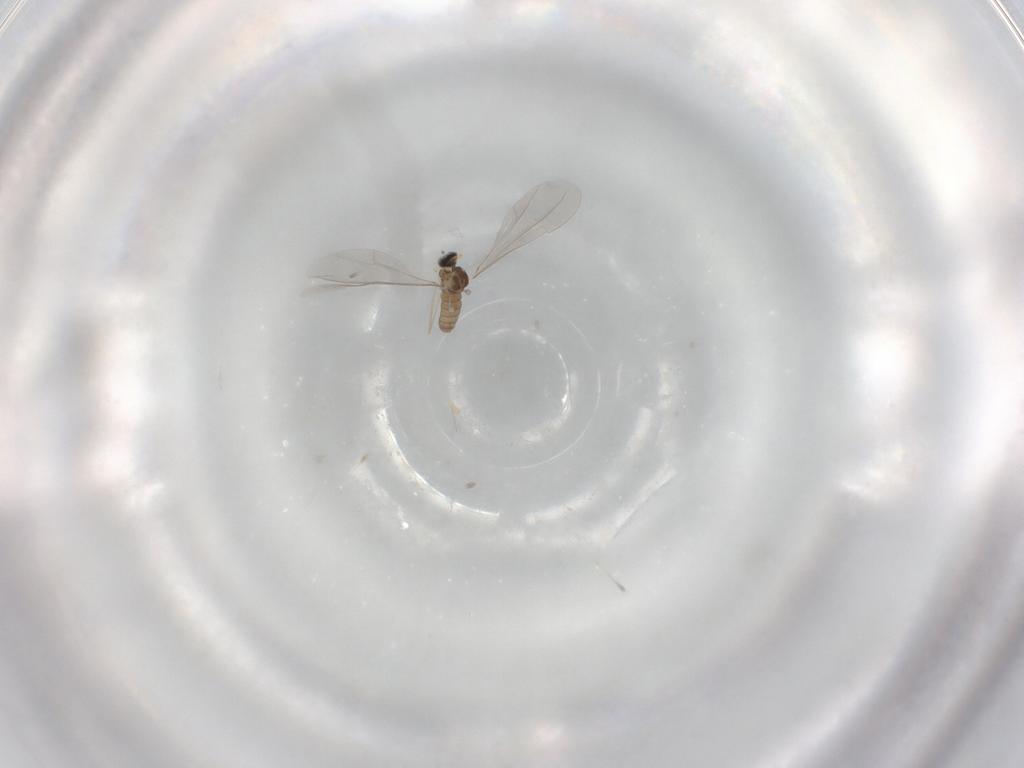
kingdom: Animalia
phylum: Arthropoda
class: Insecta
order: Diptera
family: Cecidomyiidae
